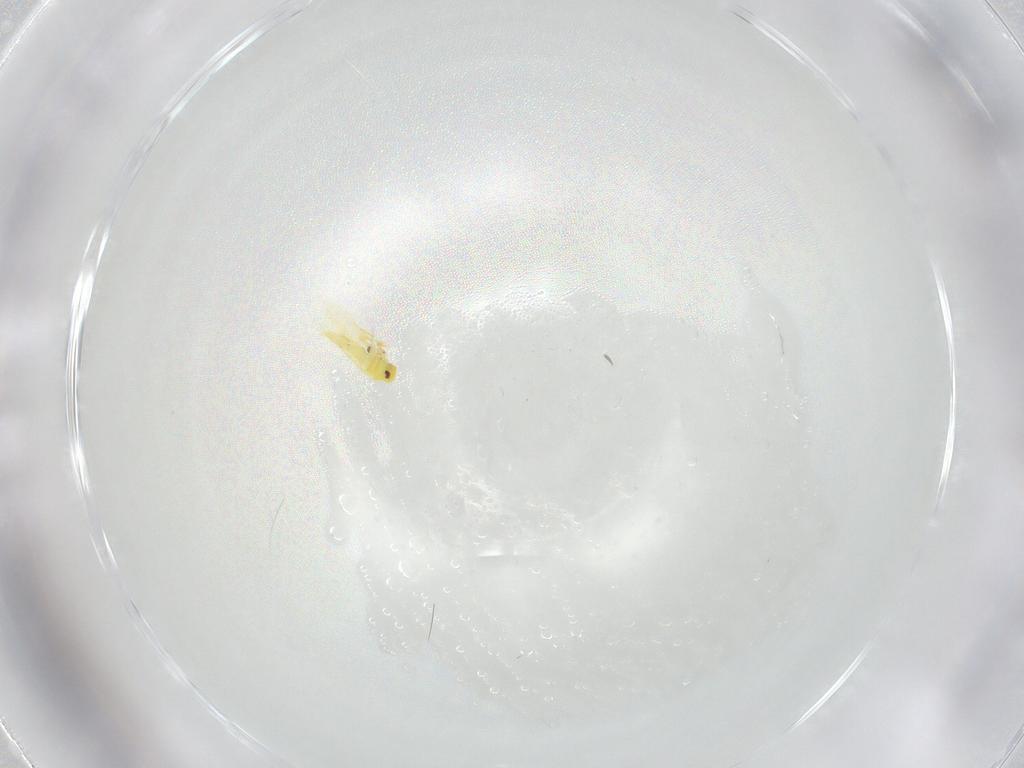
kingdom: Animalia
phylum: Arthropoda
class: Insecta
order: Hemiptera
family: Aleyrodidae
